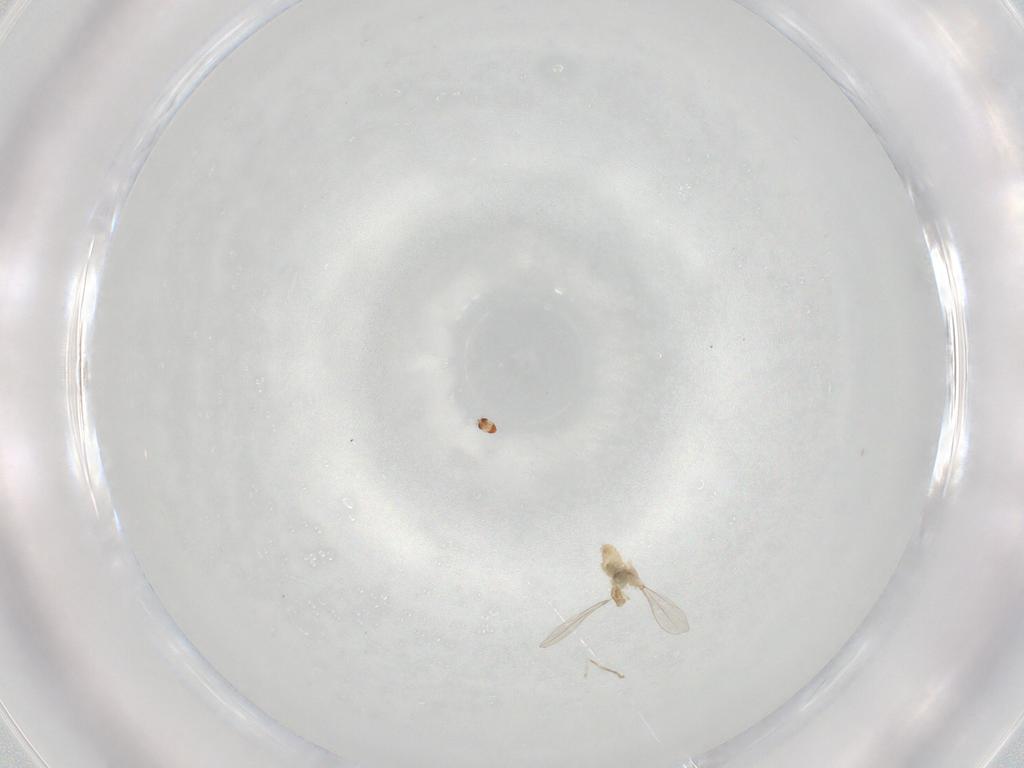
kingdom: Animalia
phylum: Arthropoda
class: Insecta
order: Diptera
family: Cecidomyiidae
